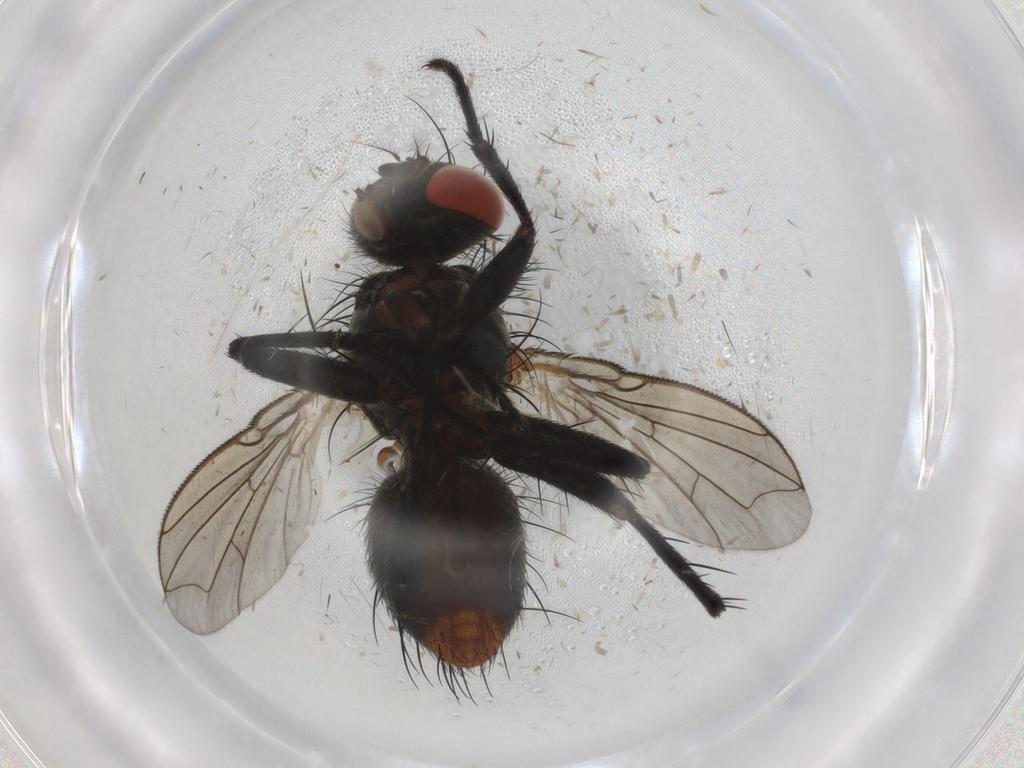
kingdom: Animalia
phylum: Arthropoda
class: Insecta
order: Diptera
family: Sarcophagidae
